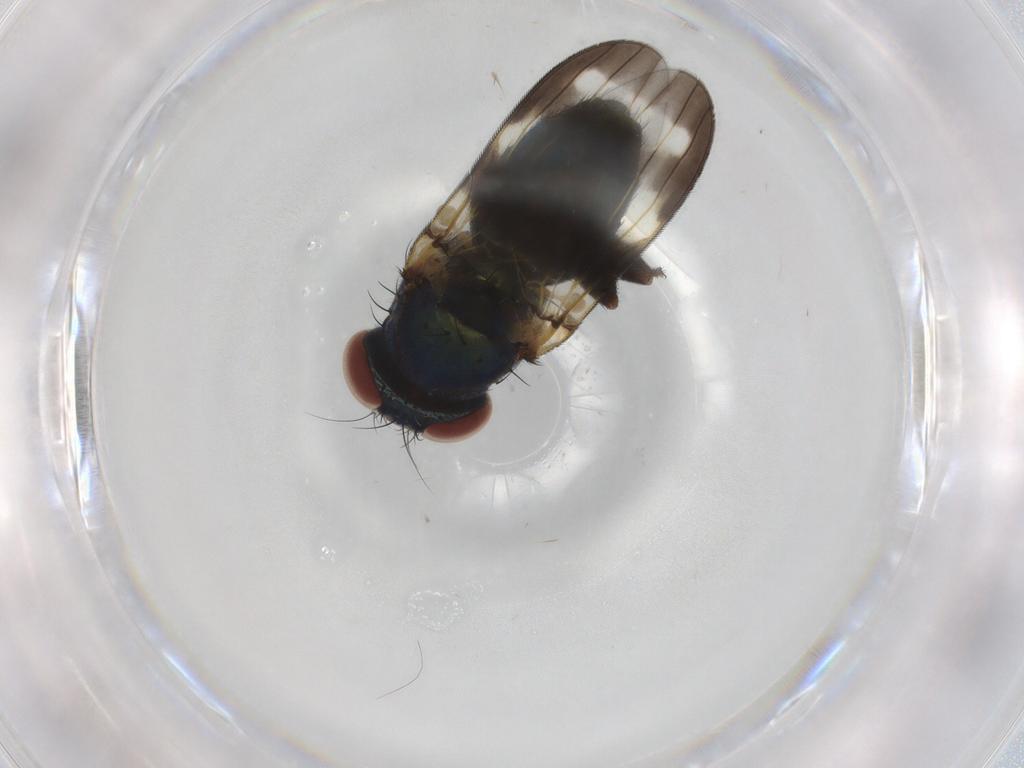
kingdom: Animalia
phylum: Arthropoda
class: Insecta
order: Diptera
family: Ulidiidae
